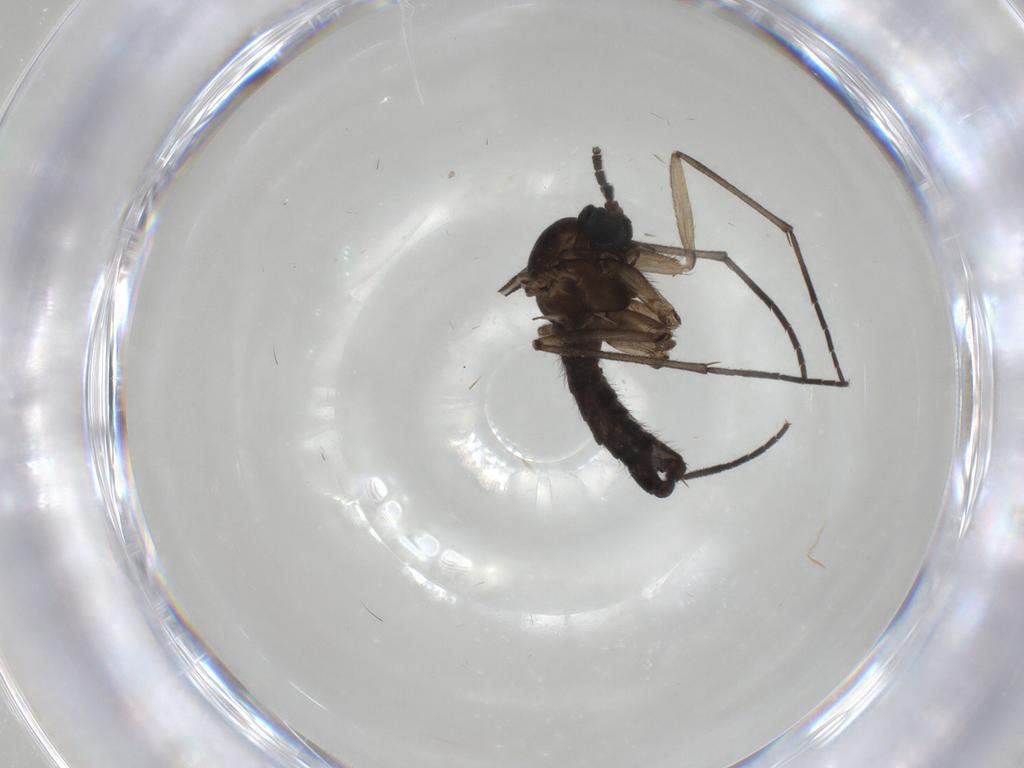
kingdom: Animalia
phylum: Arthropoda
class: Insecta
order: Diptera
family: Sciaridae
